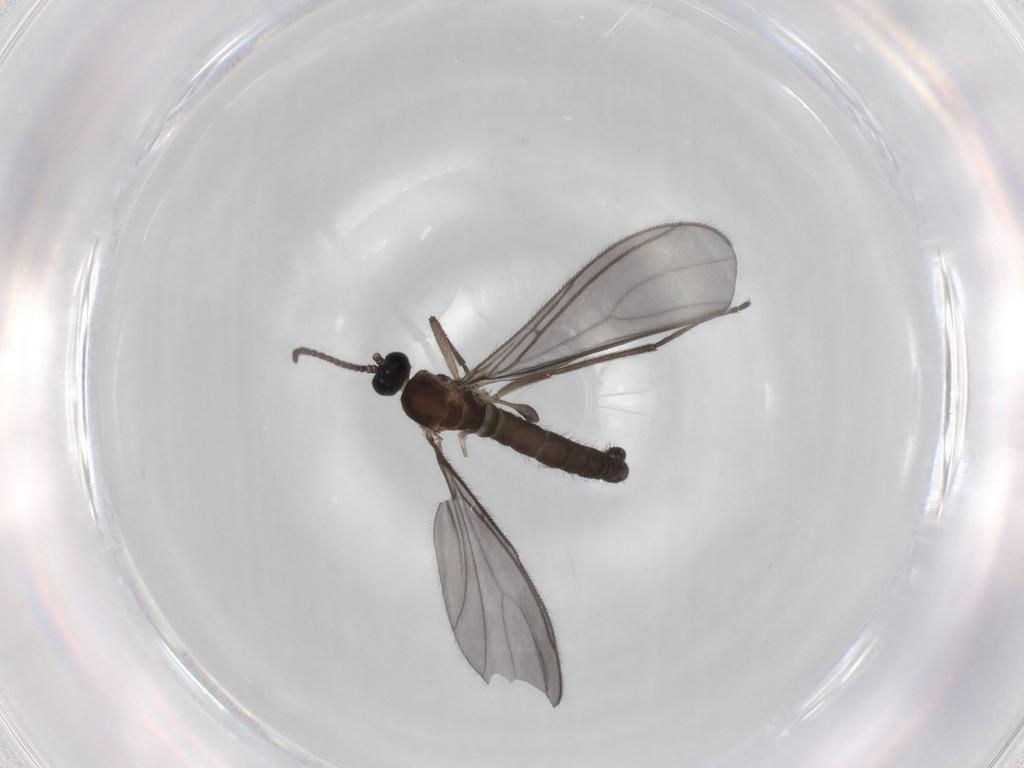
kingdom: Animalia
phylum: Arthropoda
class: Insecta
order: Diptera
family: Sciaridae
